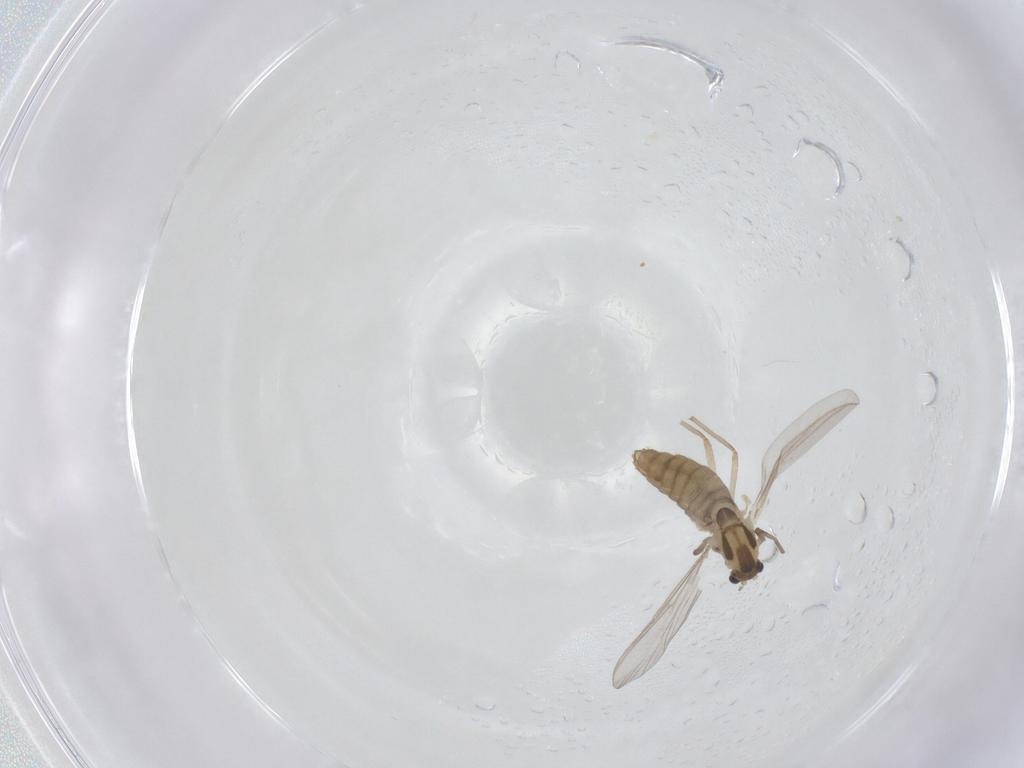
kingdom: Animalia
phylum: Arthropoda
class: Insecta
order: Diptera
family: Chironomidae
